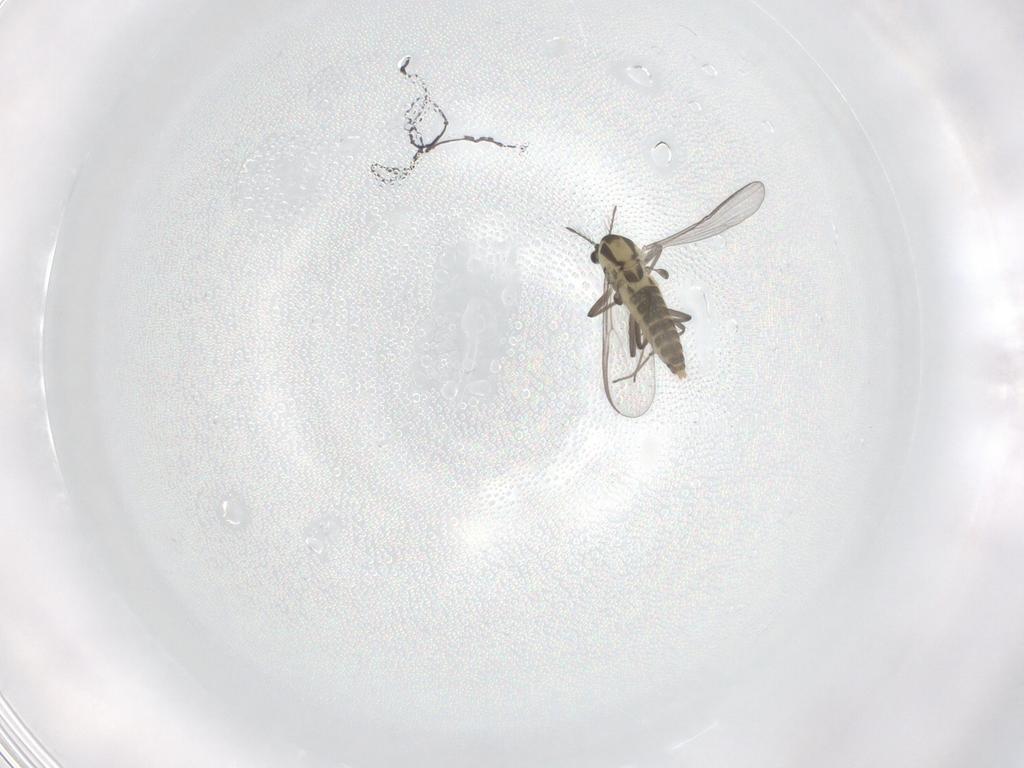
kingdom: Animalia
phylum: Arthropoda
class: Insecta
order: Diptera
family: Chironomidae
